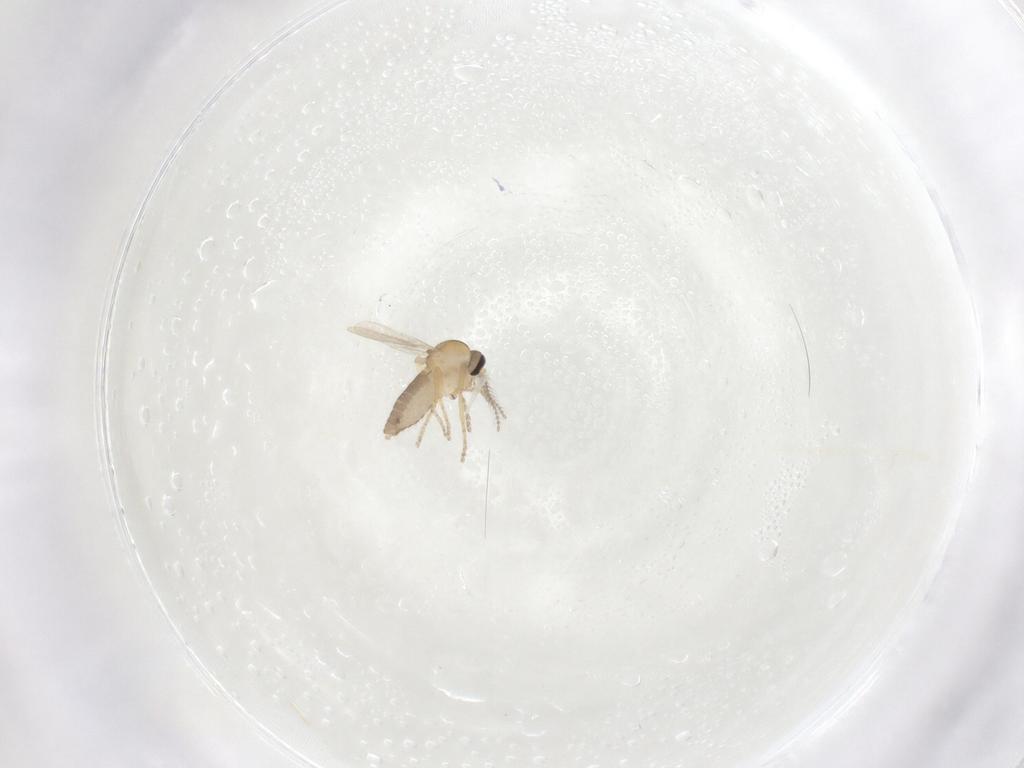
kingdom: Animalia
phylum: Arthropoda
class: Insecta
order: Diptera
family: Ceratopogonidae
